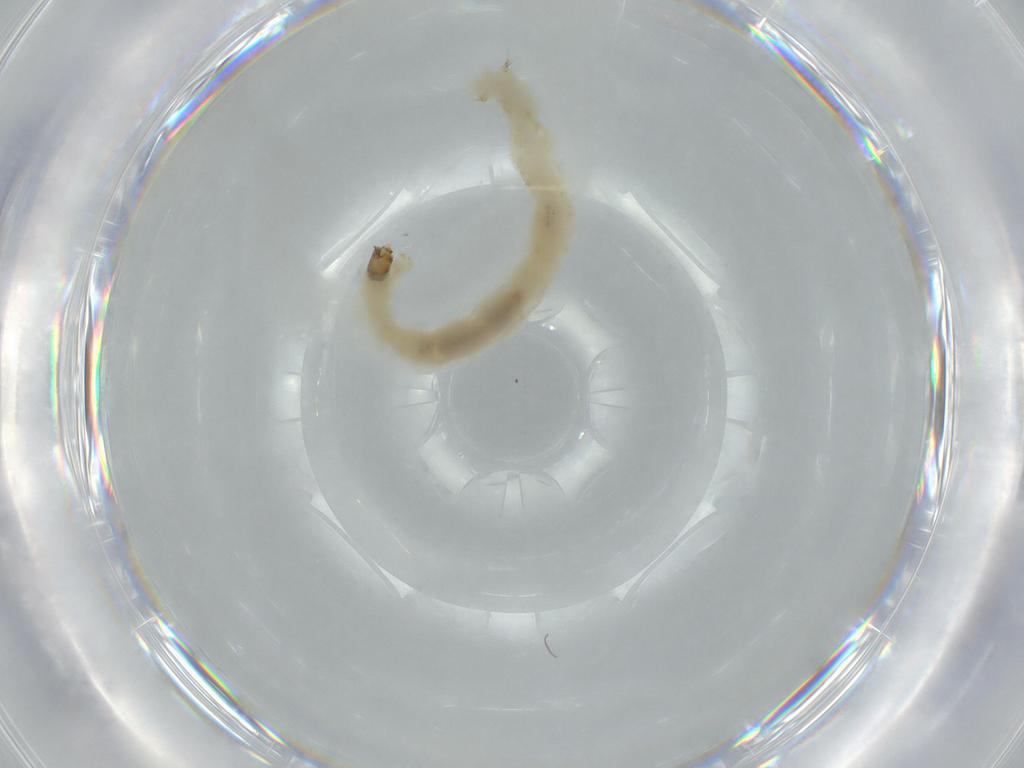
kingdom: Animalia
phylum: Arthropoda
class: Insecta
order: Diptera
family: Chironomidae
